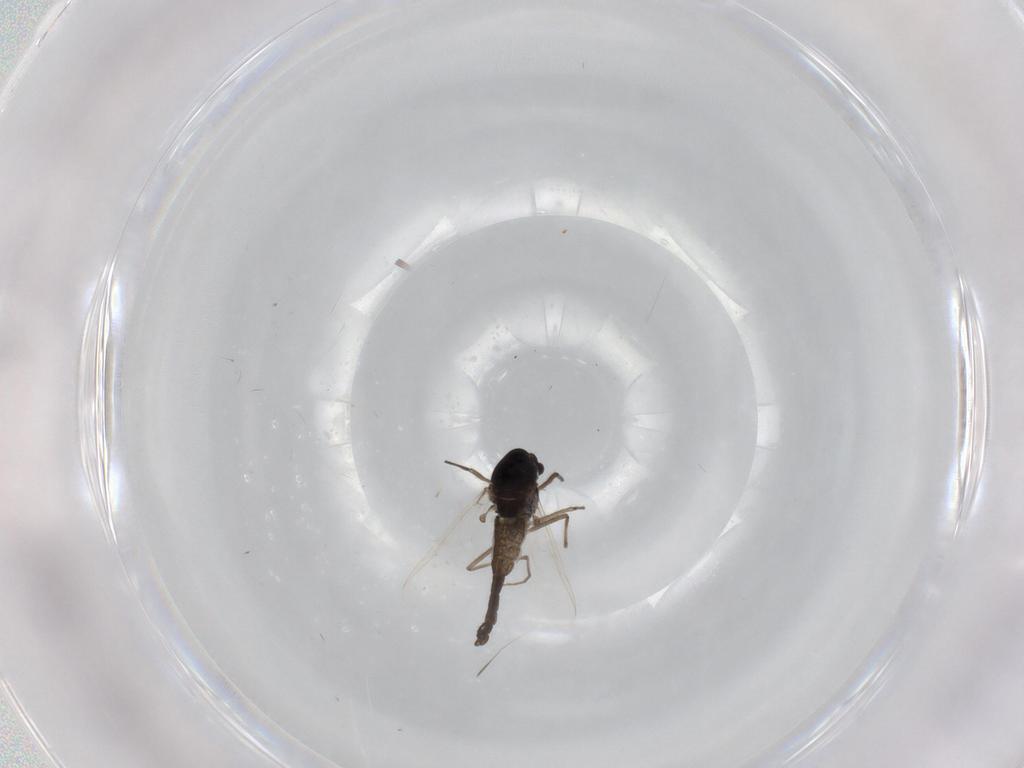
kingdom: Animalia
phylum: Arthropoda
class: Insecta
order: Diptera
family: Chironomidae
